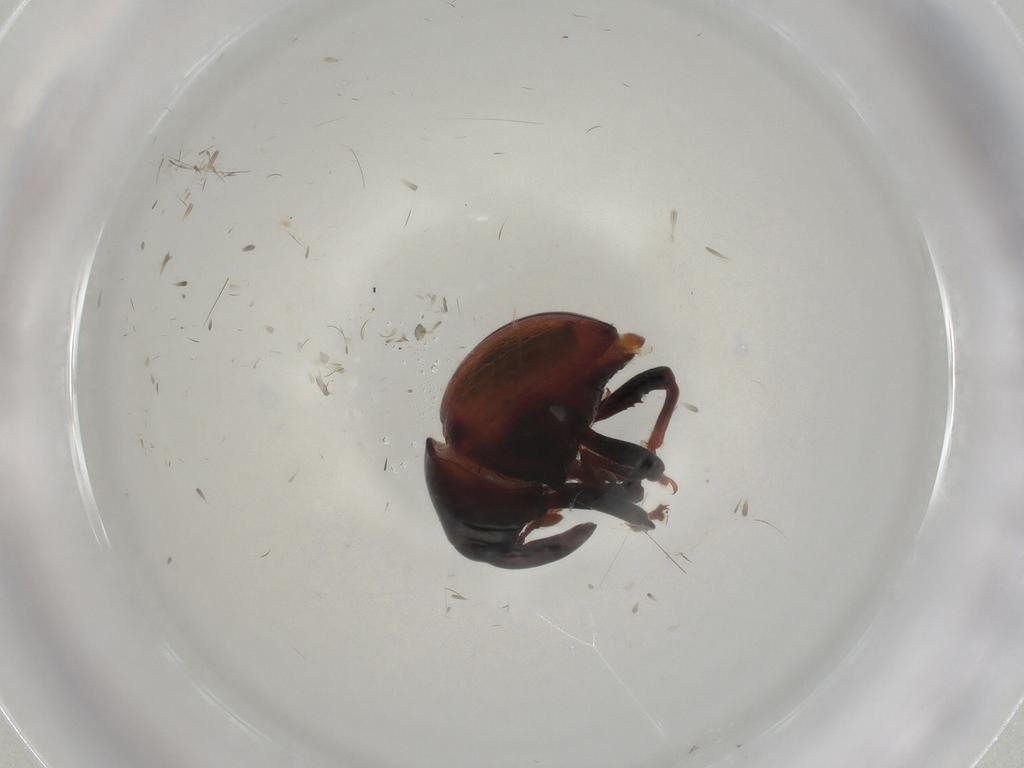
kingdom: Animalia
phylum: Arthropoda
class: Insecta
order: Coleoptera
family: Curculionidae
